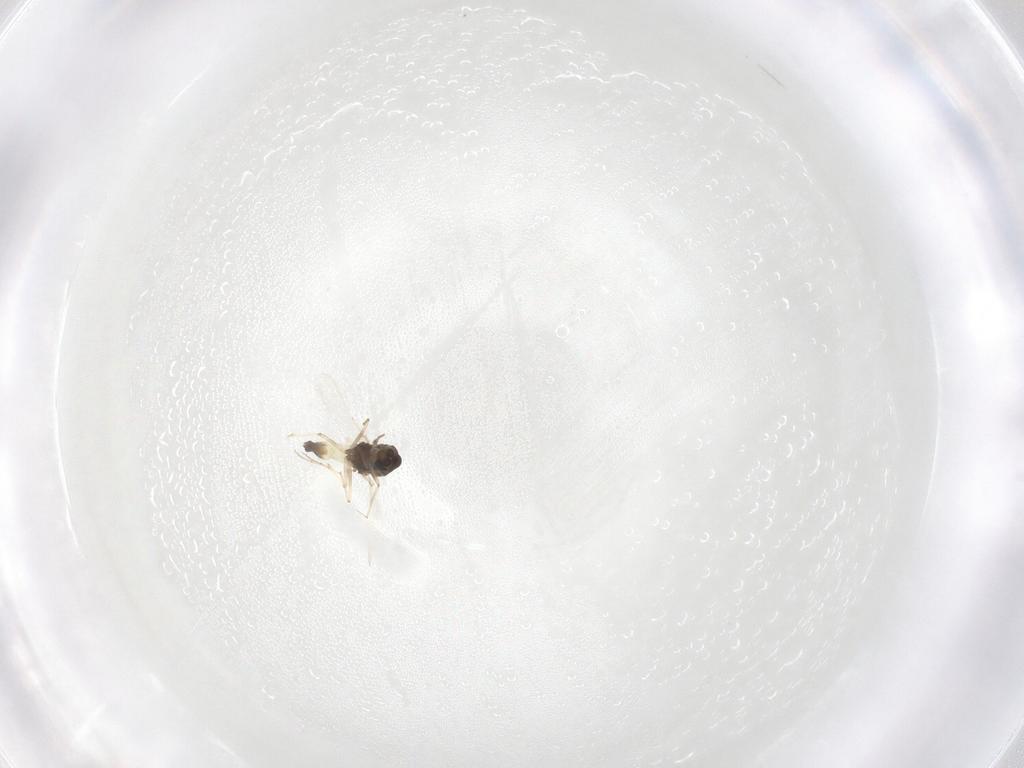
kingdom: Animalia
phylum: Arthropoda
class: Insecta
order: Diptera
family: Chironomidae
